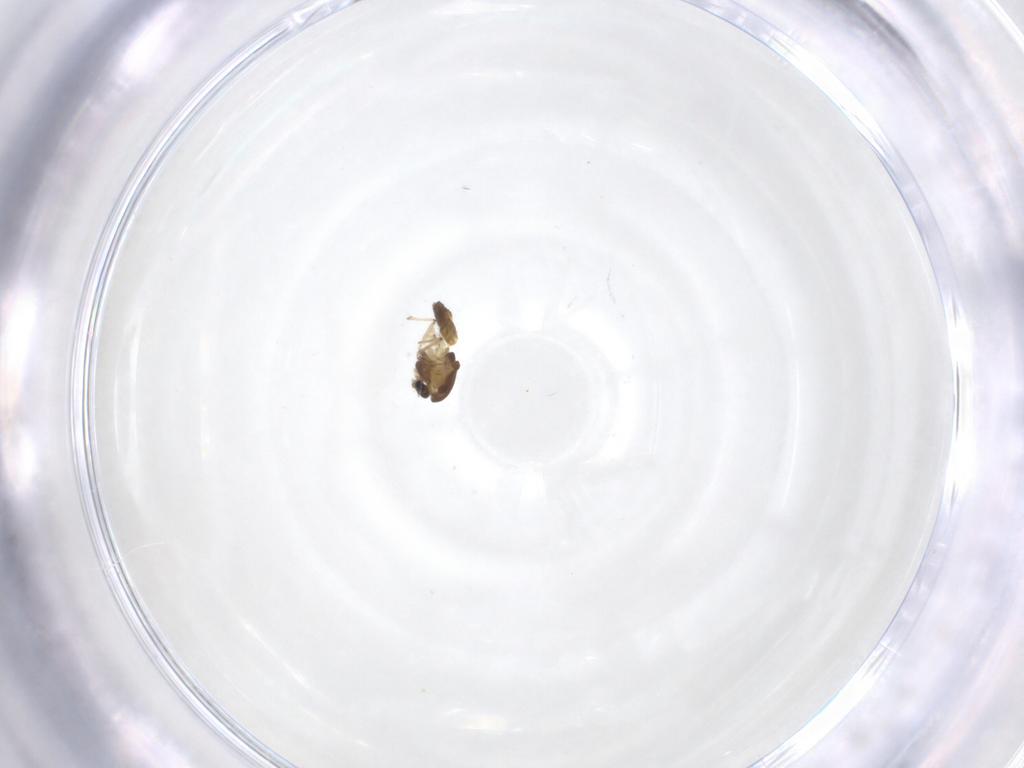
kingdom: Animalia
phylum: Arthropoda
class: Insecta
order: Diptera
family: Chironomidae
